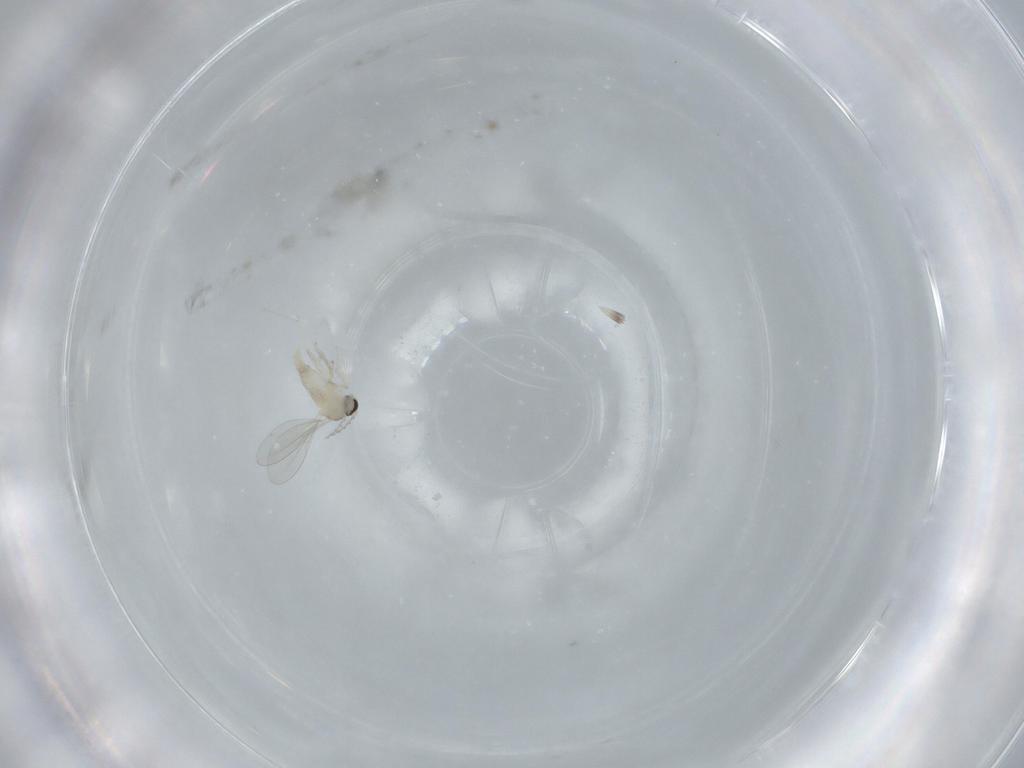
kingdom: Animalia
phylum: Arthropoda
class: Insecta
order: Diptera
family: Cecidomyiidae
